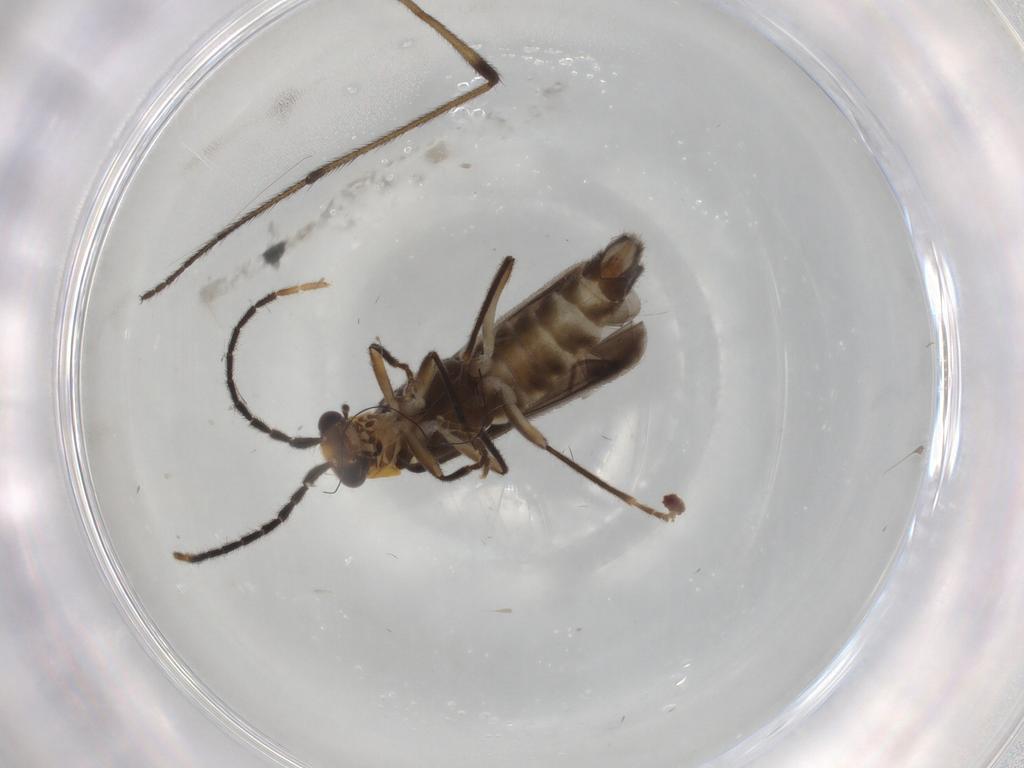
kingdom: Animalia
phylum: Arthropoda
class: Insecta
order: Coleoptera
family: Cantharidae
